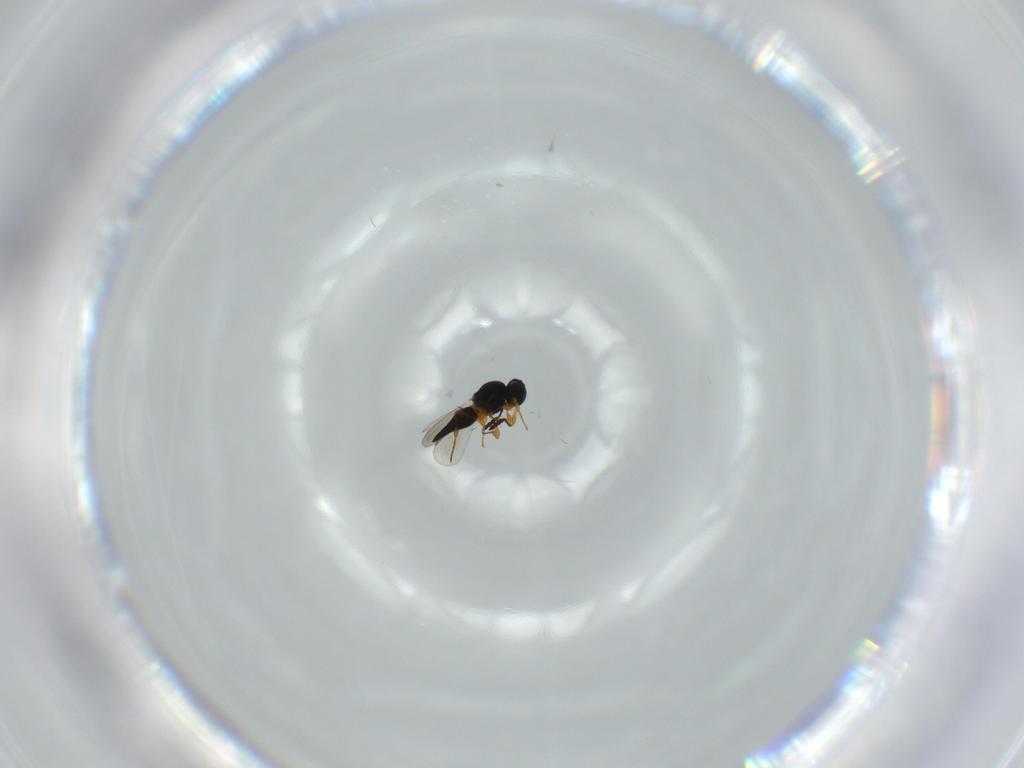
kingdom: Animalia
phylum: Arthropoda
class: Insecta
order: Hymenoptera
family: Platygastridae
